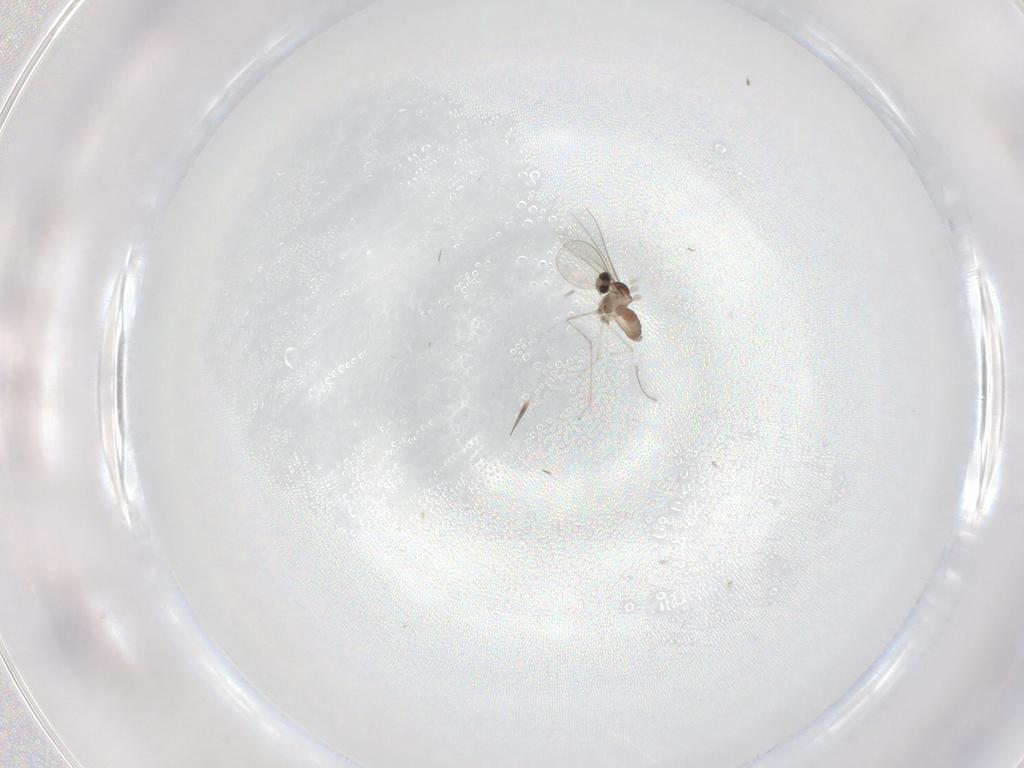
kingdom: Animalia
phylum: Arthropoda
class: Insecta
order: Diptera
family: Cecidomyiidae
